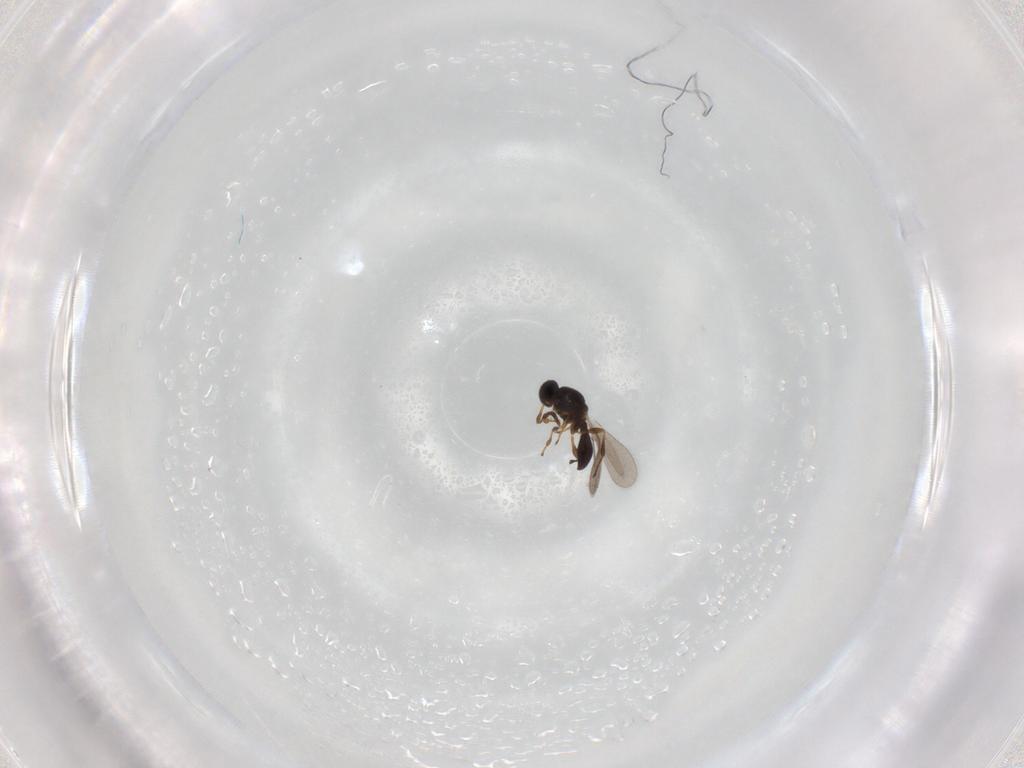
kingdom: Animalia
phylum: Arthropoda
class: Insecta
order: Hymenoptera
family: Platygastridae
